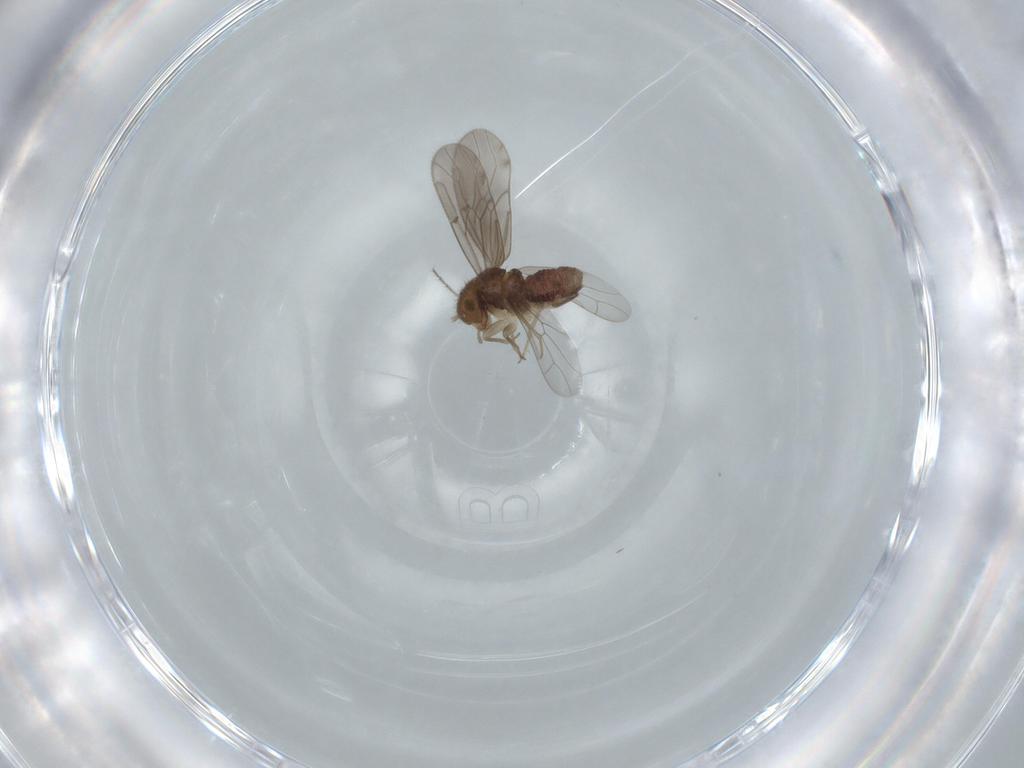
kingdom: Animalia
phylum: Arthropoda
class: Insecta
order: Psocodea
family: Ectopsocidae
